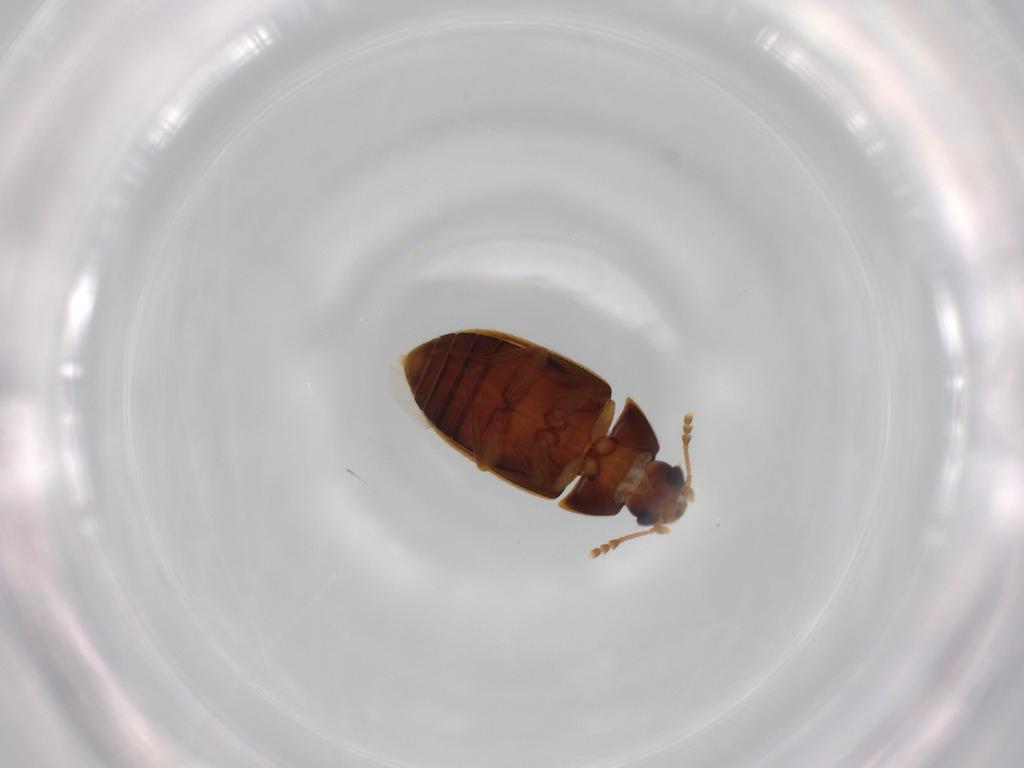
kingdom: Animalia
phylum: Arthropoda
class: Insecta
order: Coleoptera
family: Mycetophagidae
